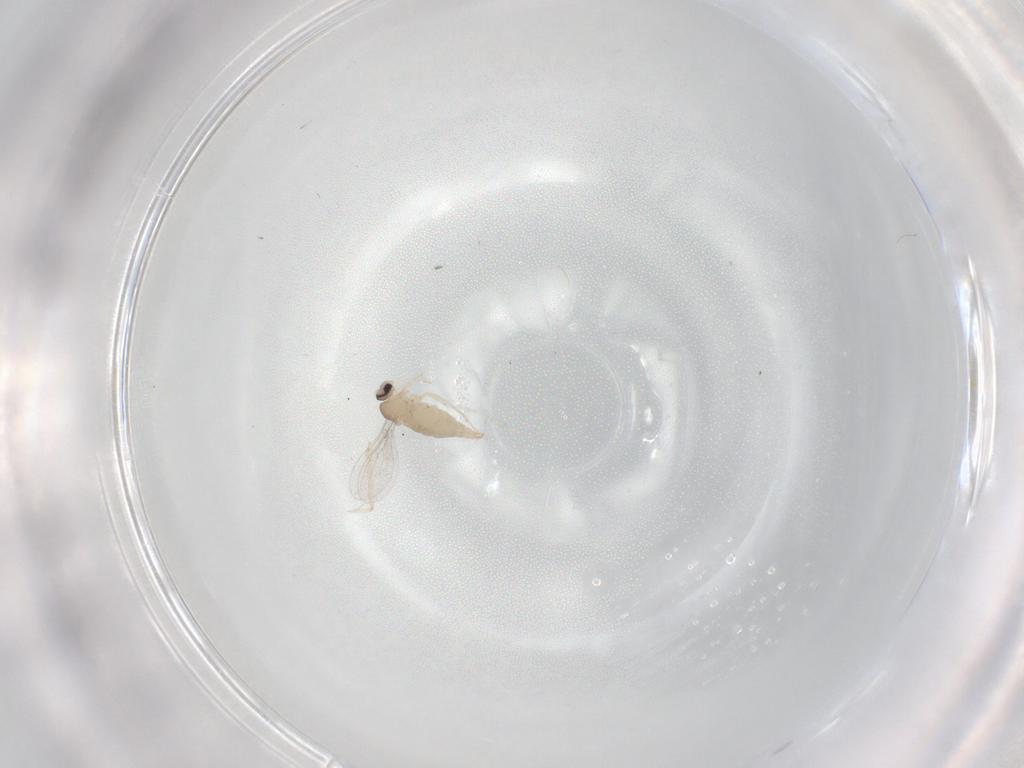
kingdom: Animalia
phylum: Arthropoda
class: Insecta
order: Diptera
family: Cecidomyiidae
